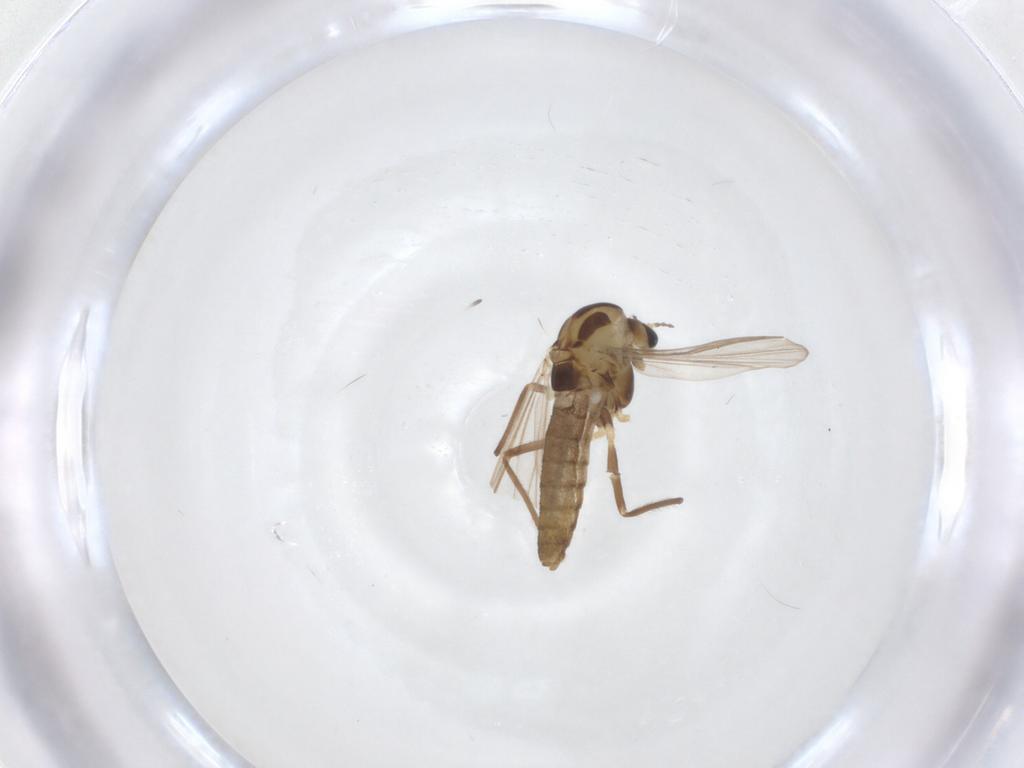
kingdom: Animalia
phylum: Arthropoda
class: Insecta
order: Diptera
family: Chironomidae
